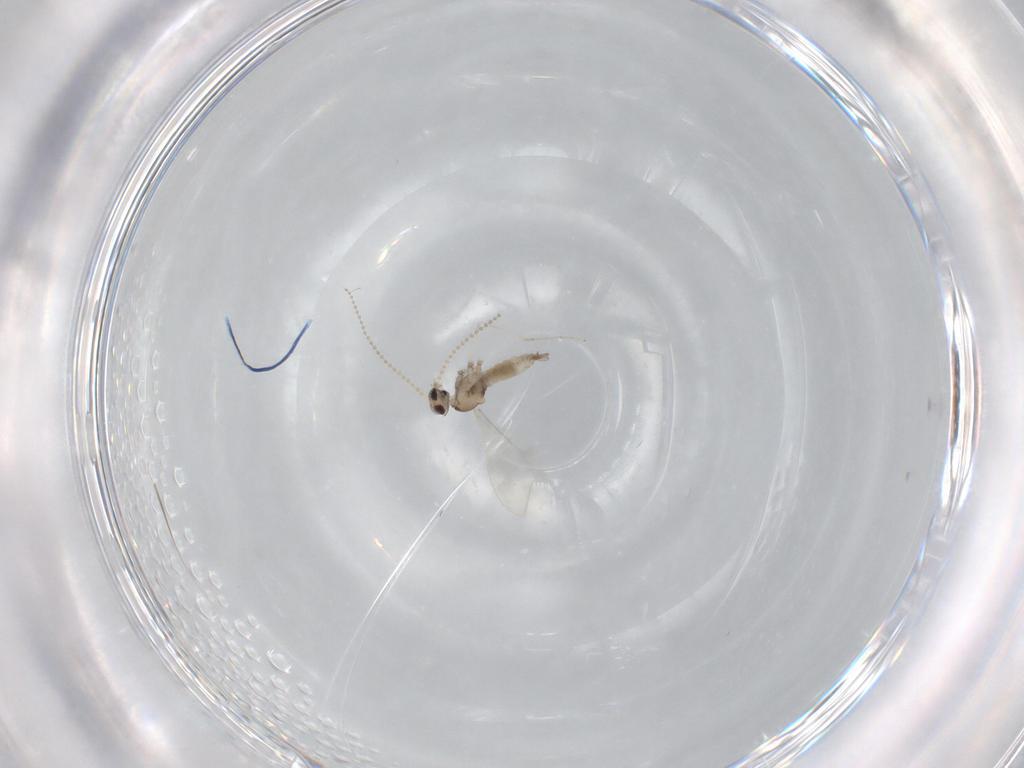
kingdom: Animalia
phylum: Arthropoda
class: Insecta
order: Diptera
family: Cecidomyiidae
